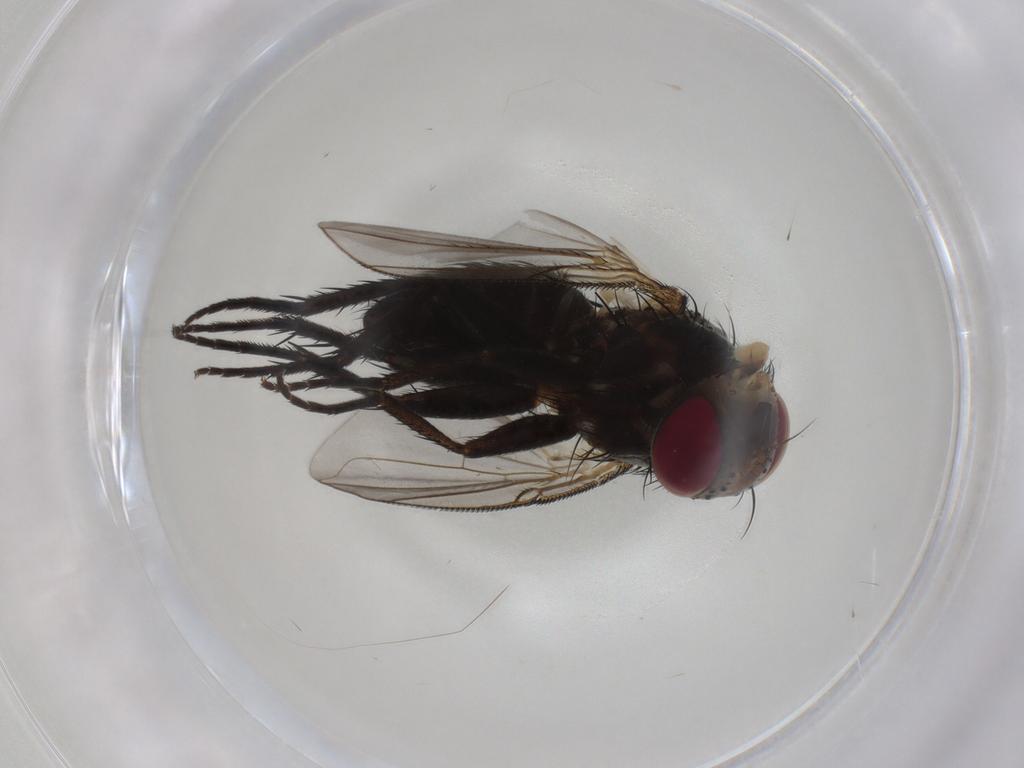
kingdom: Animalia
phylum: Arthropoda
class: Insecta
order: Diptera
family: Tachinidae
